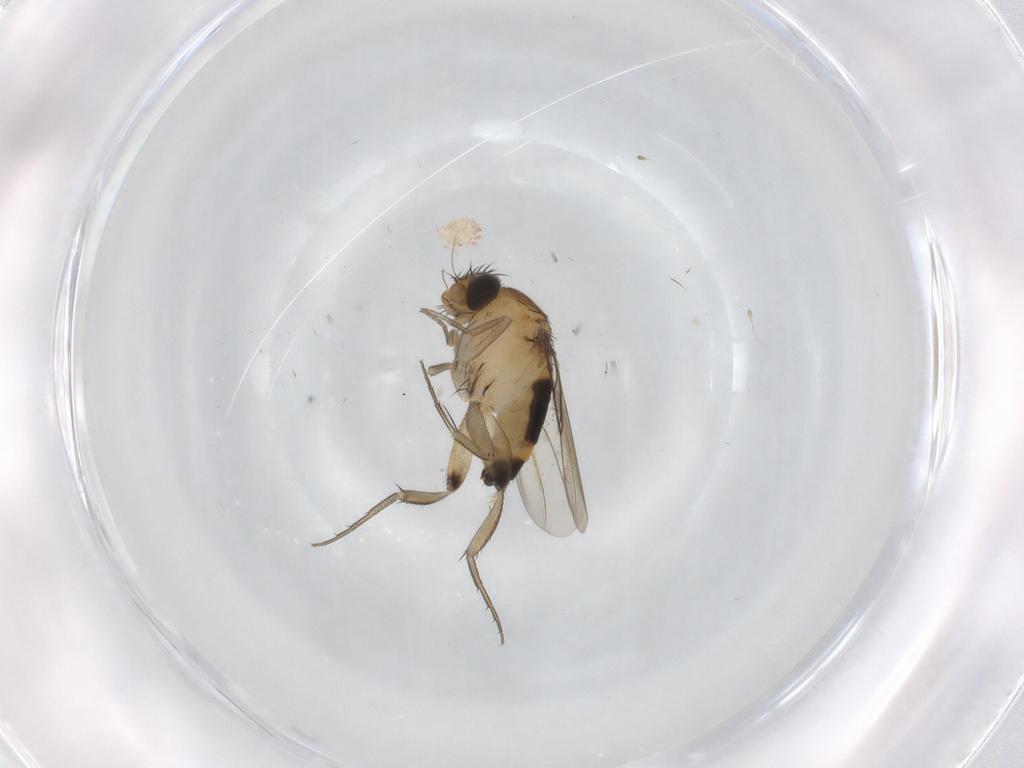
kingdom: Animalia
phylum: Arthropoda
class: Insecta
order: Diptera
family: Phoridae
